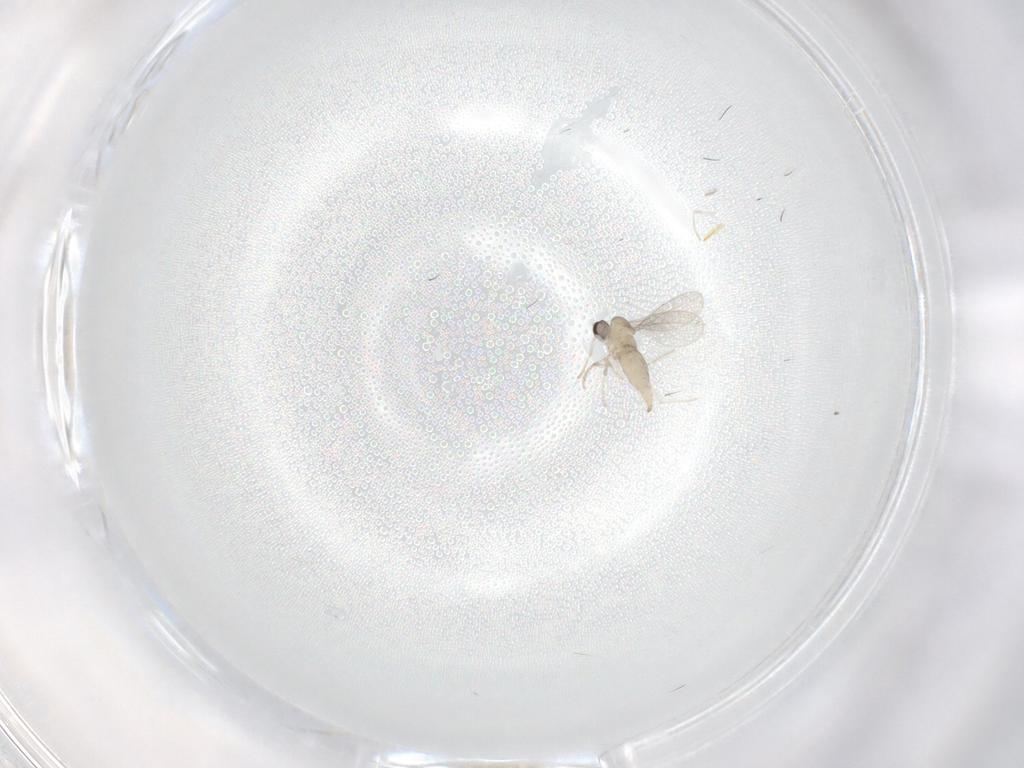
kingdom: Animalia
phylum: Arthropoda
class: Insecta
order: Diptera
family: Cecidomyiidae
